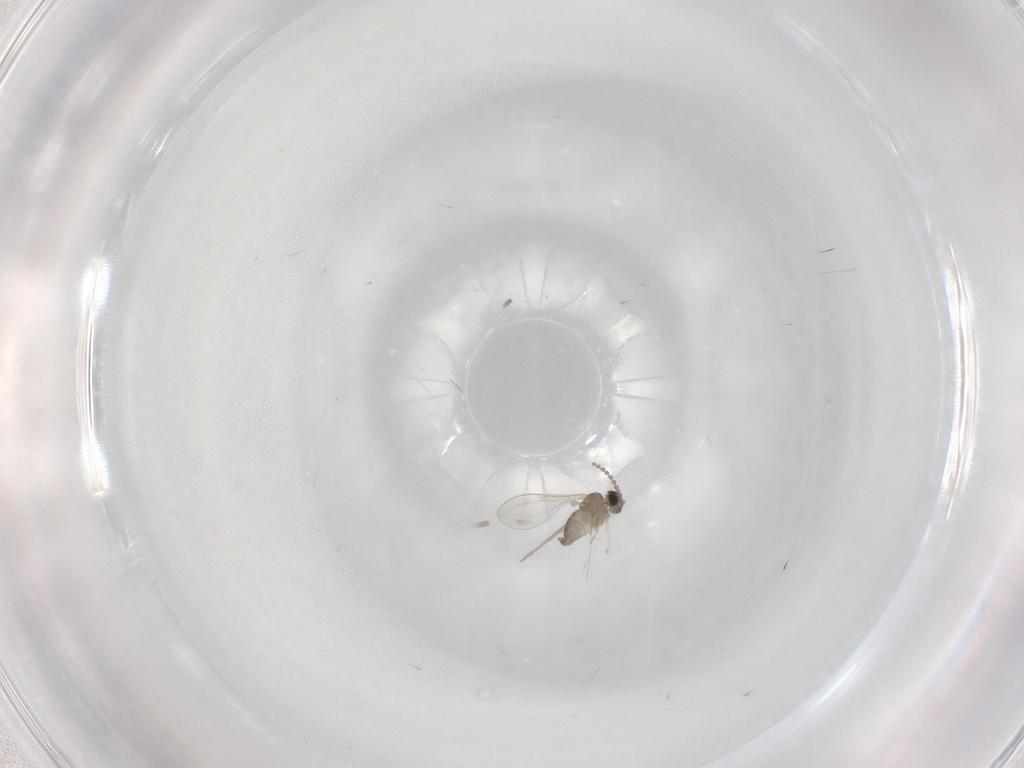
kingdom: Animalia
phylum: Arthropoda
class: Insecta
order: Diptera
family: Cecidomyiidae
